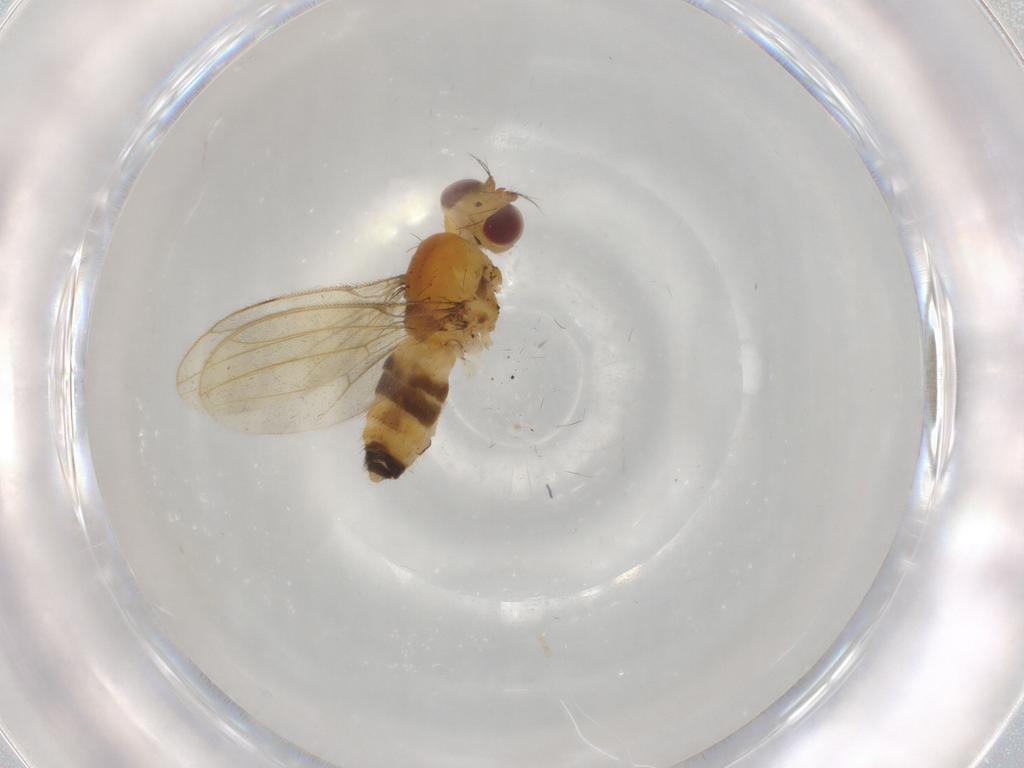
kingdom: Animalia
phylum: Arthropoda
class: Insecta
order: Diptera
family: Periscelididae
